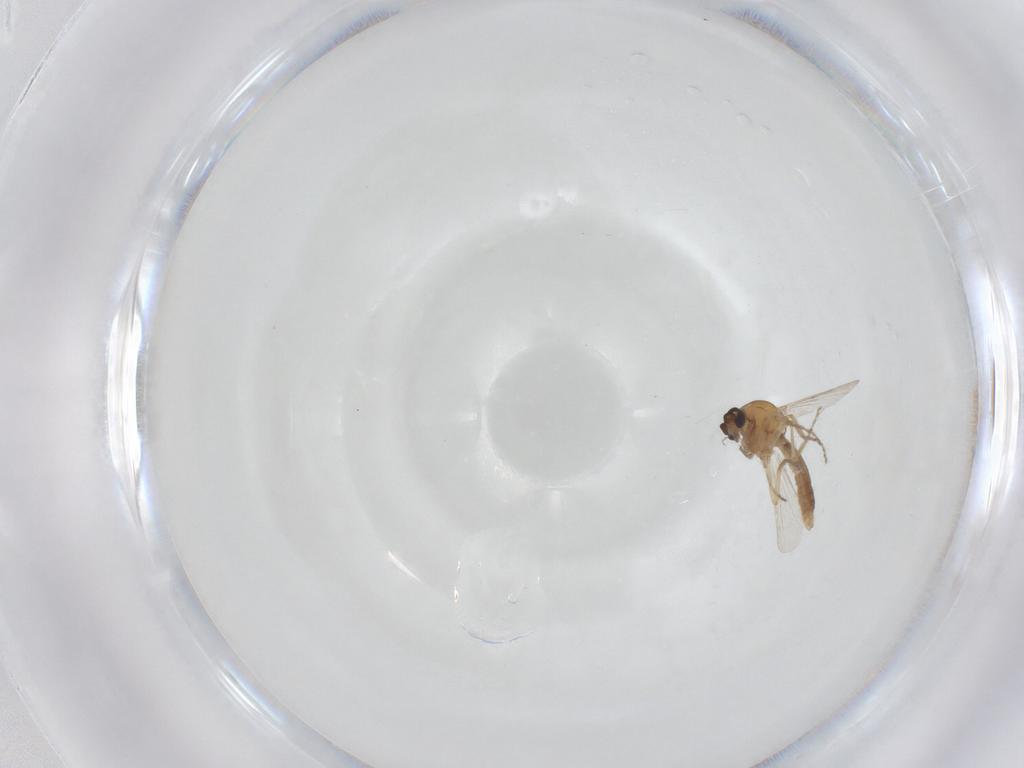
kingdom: Animalia
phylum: Arthropoda
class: Insecta
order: Diptera
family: Ceratopogonidae
